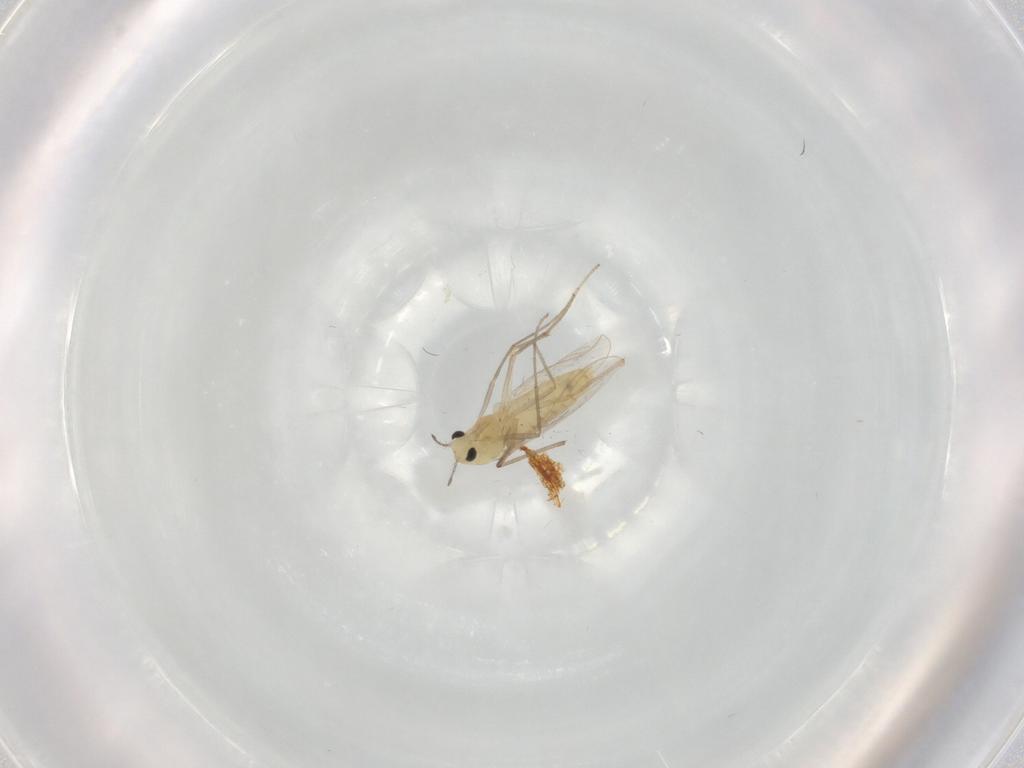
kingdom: Animalia
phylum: Arthropoda
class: Insecta
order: Diptera
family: Chironomidae
